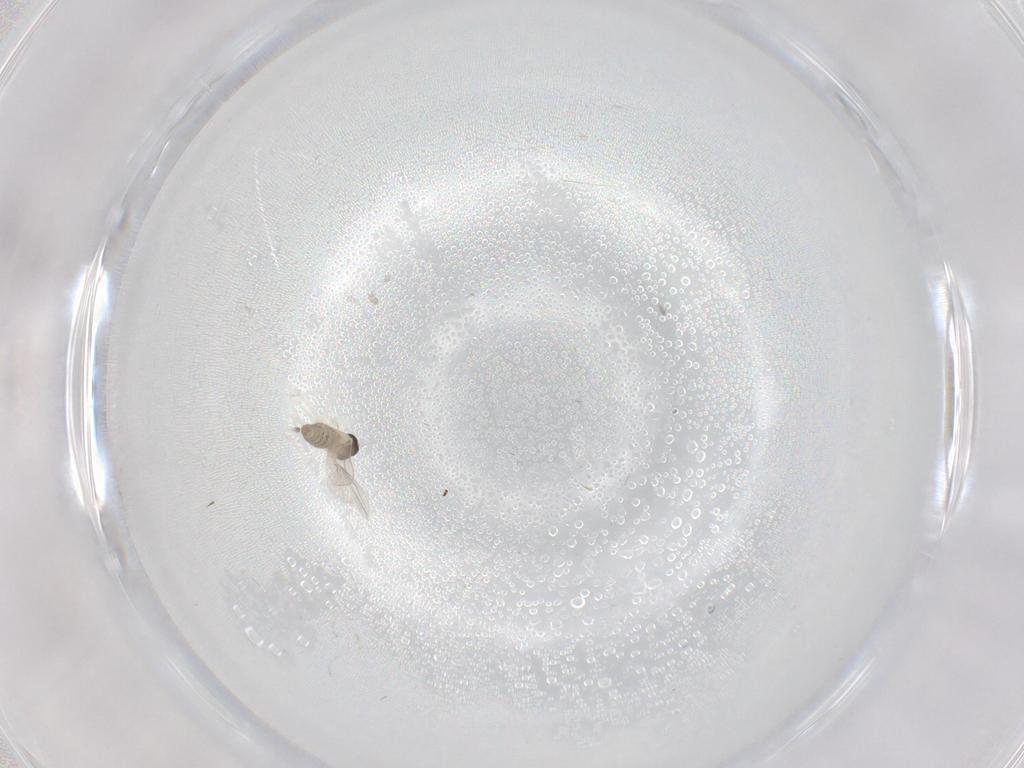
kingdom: Animalia
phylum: Arthropoda
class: Insecta
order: Diptera
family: Cecidomyiidae
